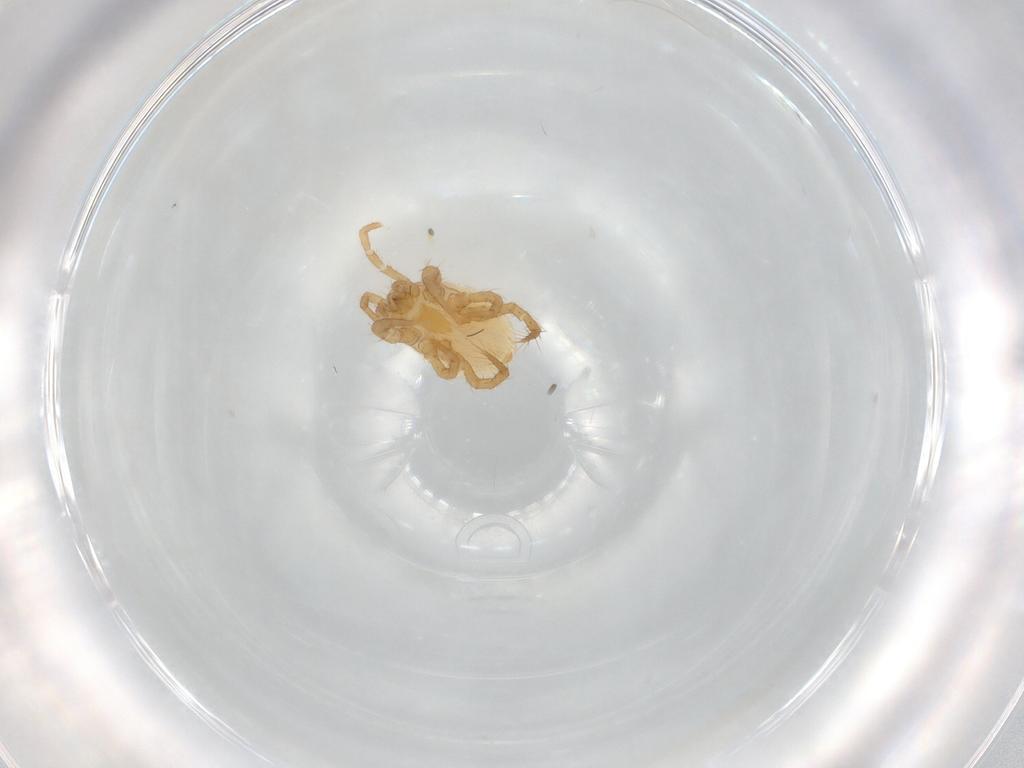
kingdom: Animalia
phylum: Arthropoda
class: Arachnida
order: Mesostigmata
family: Parasitidae
